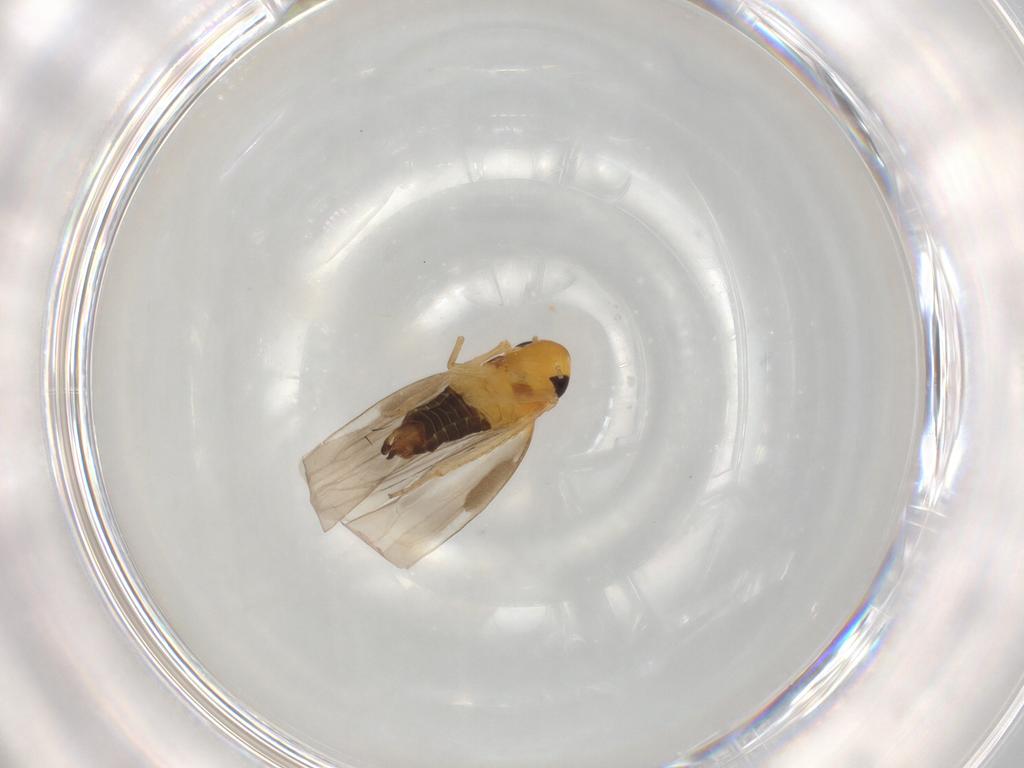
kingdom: Animalia
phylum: Arthropoda
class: Insecta
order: Hemiptera
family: Cicadellidae
